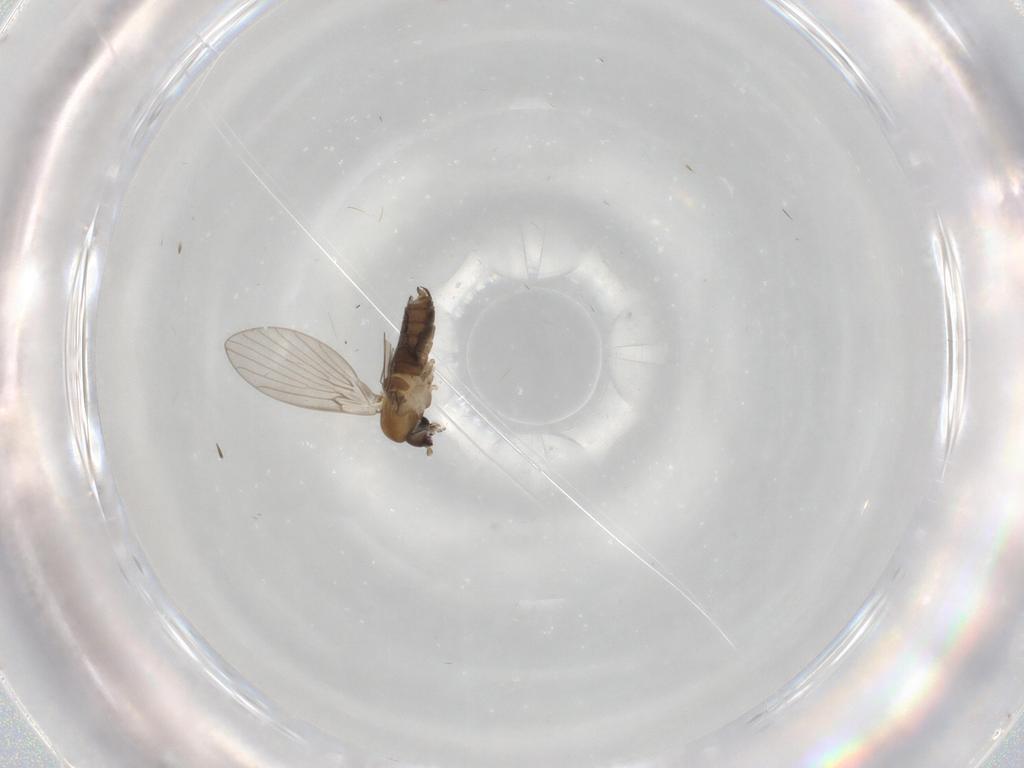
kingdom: Animalia
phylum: Arthropoda
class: Insecta
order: Diptera
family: Psychodidae
